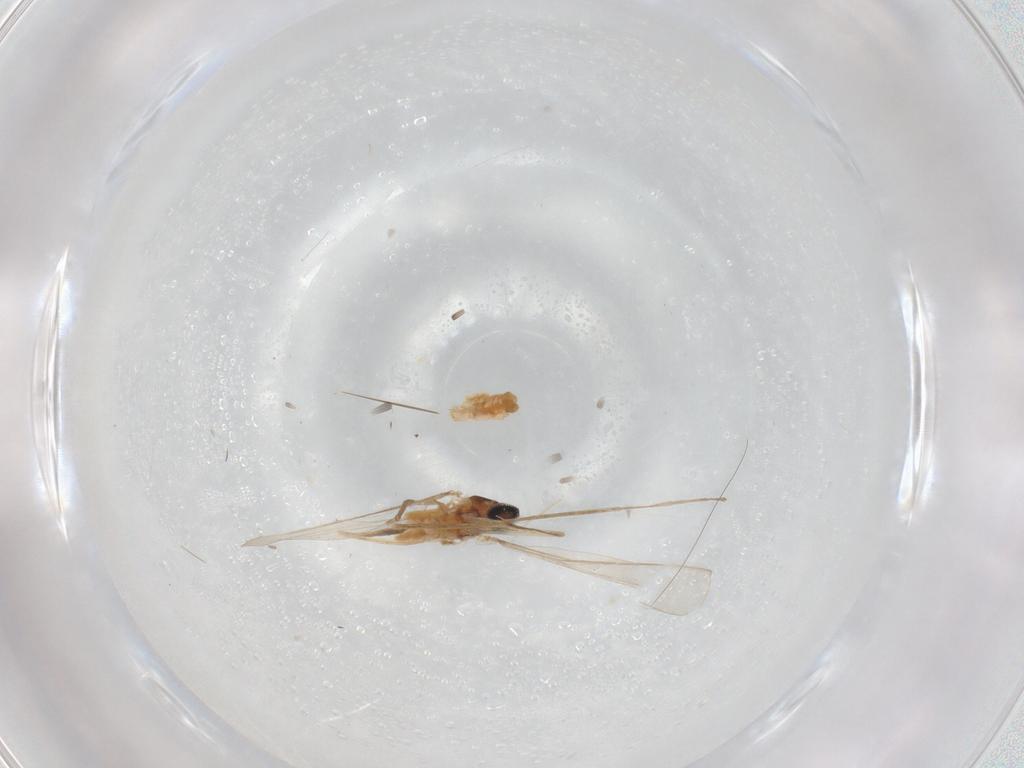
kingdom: Animalia
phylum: Arthropoda
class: Insecta
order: Diptera
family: Cecidomyiidae
